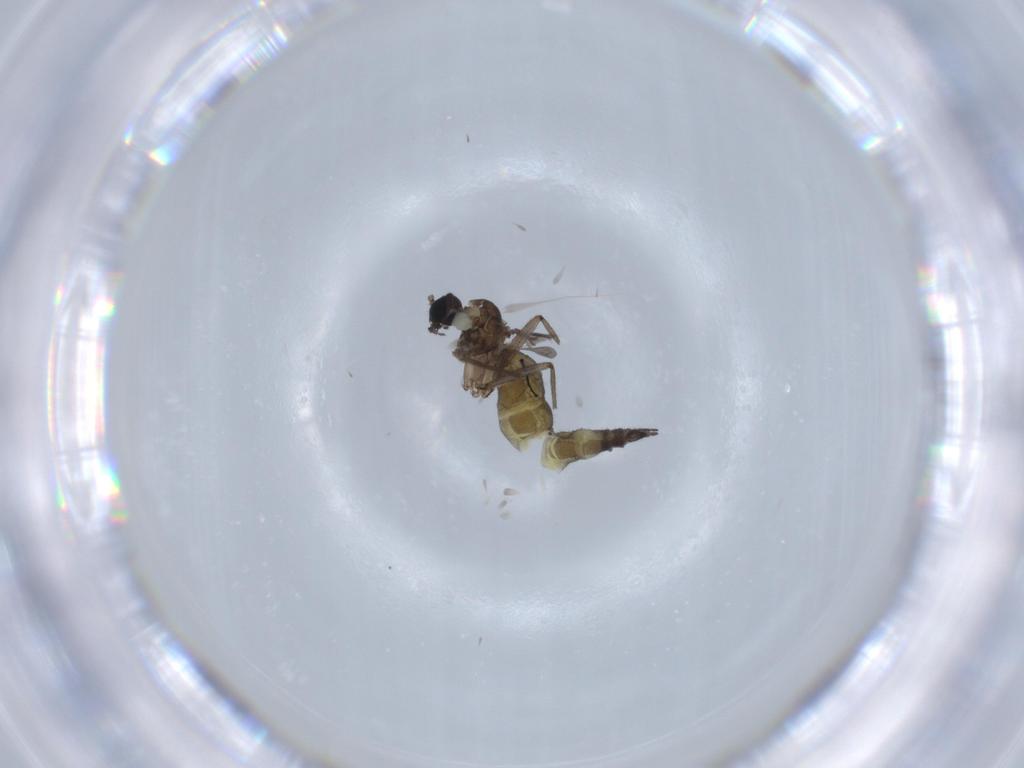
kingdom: Animalia
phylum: Arthropoda
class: Insecta
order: Diptera
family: Sciaridae
